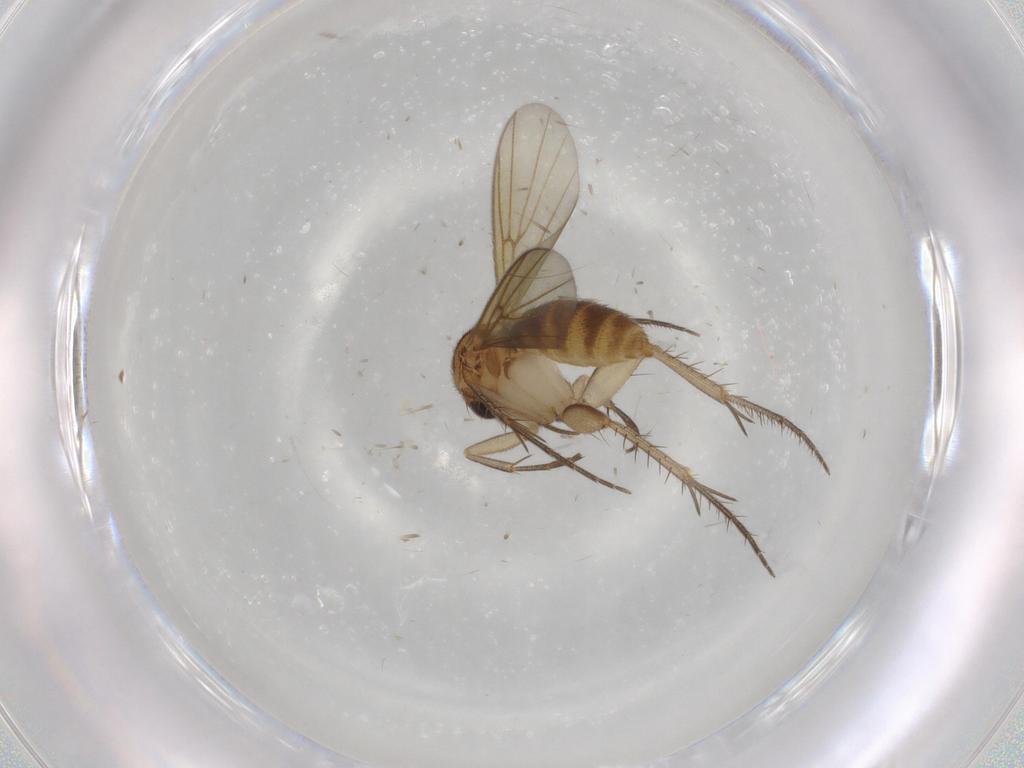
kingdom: Animalia
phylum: Arthropoda
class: Insecta
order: Diptera
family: Mycetophilidae
